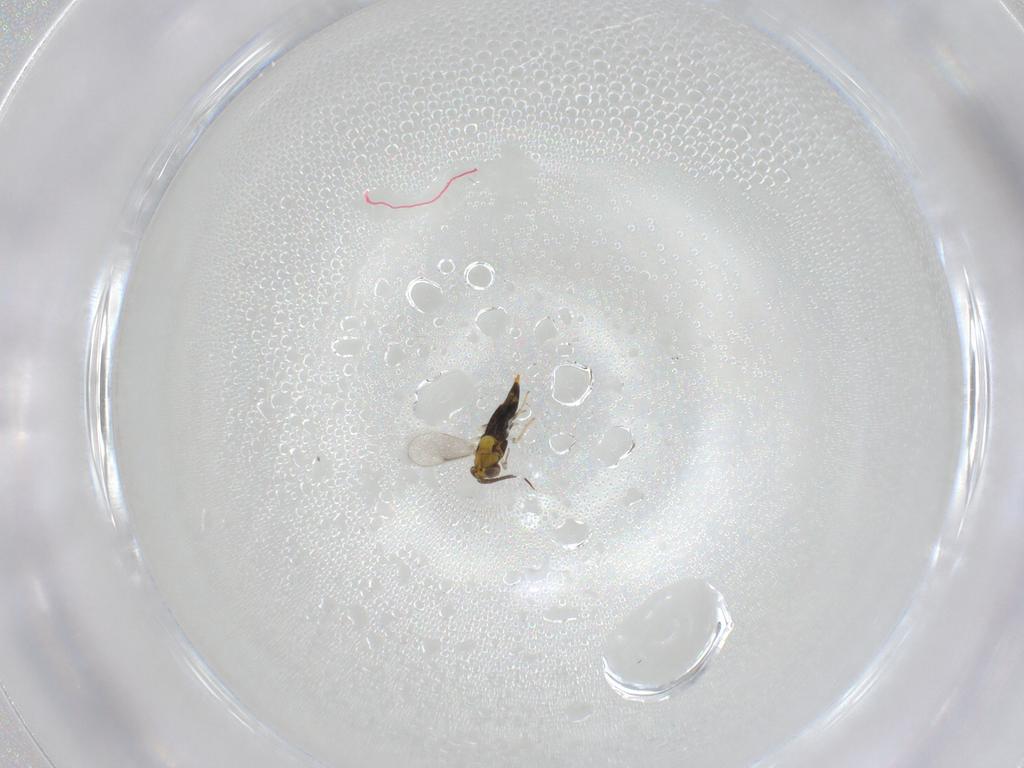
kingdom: Animalia
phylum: Arthropoda
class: Insecta
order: Hymenoptera
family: Aphelinidae
